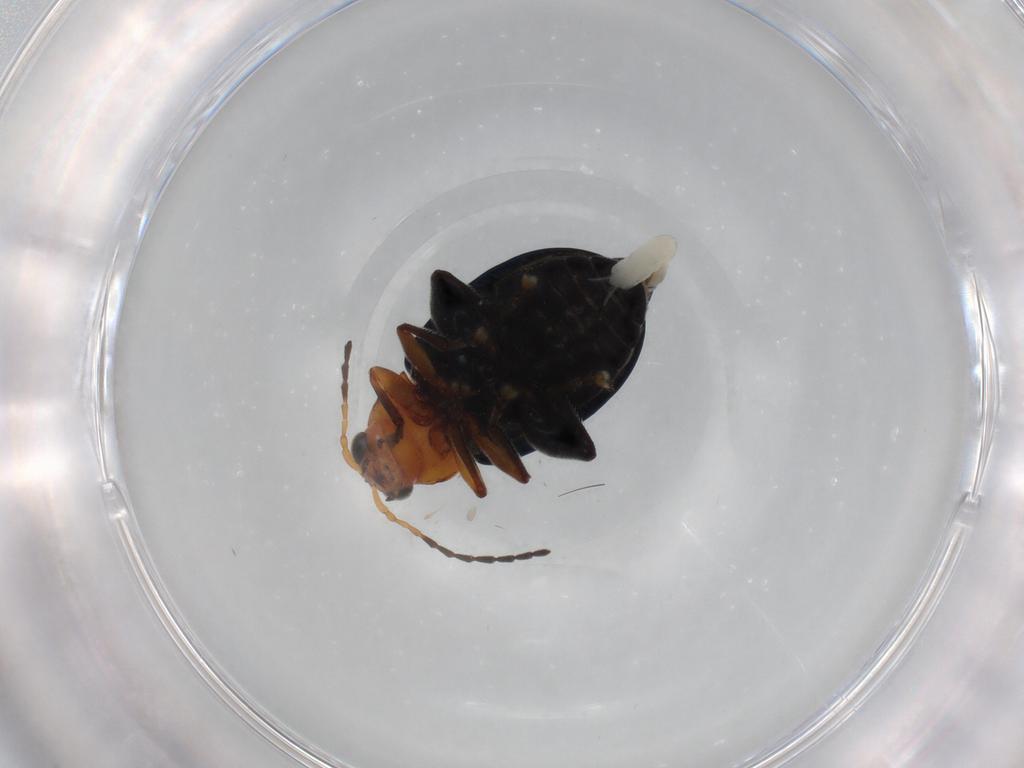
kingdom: Animalia
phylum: Arthropoda
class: Insecta
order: Coleoptera
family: Chrysomelidae
